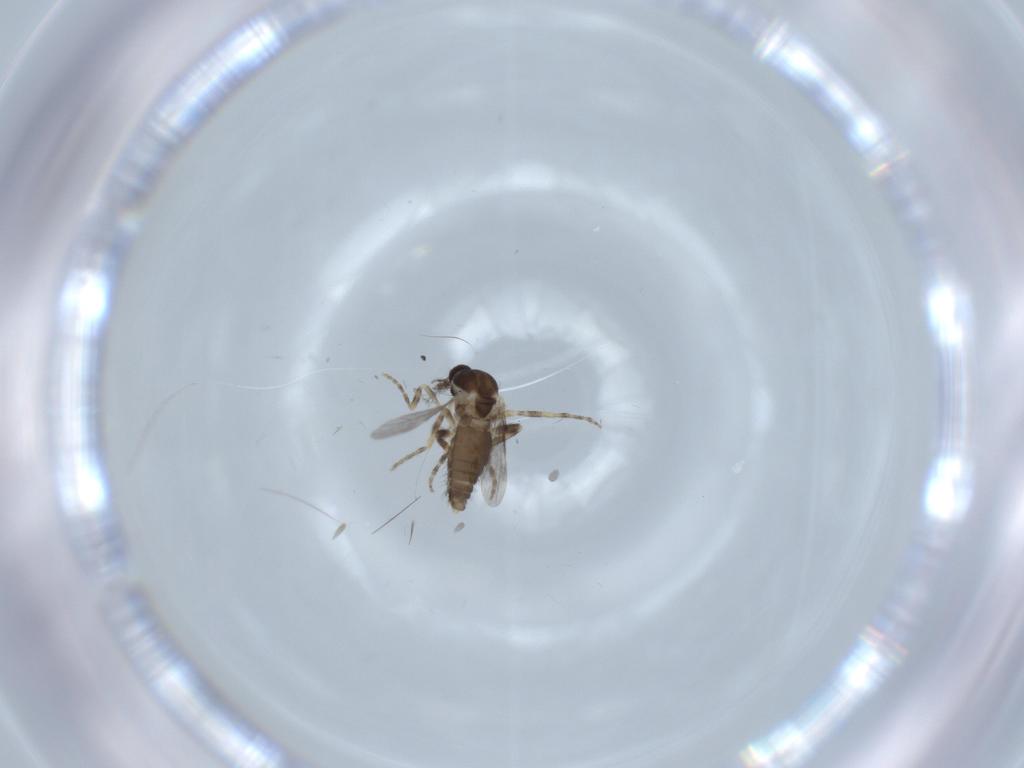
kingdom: Animalia
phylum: Arthropoda
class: Insecta
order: Diptera
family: Ceratopogonidae
